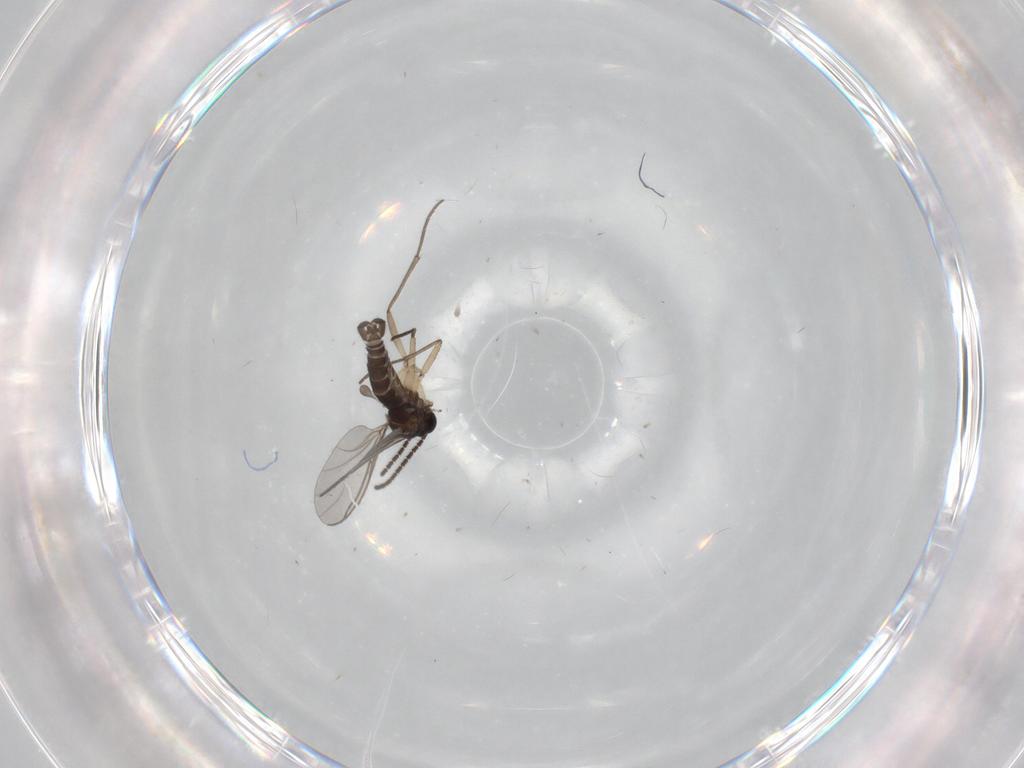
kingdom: Animalia
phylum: Arthropoda
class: Insecta
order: Diptera
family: Sciaridae
